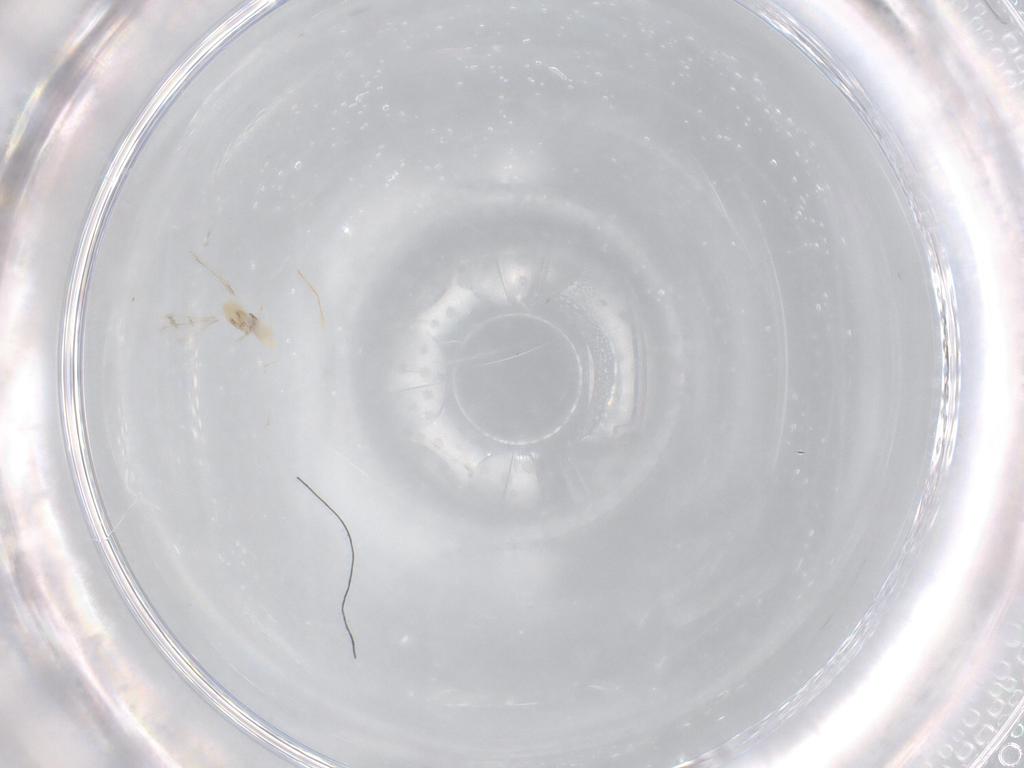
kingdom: Animalia
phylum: Arthropoda
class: Insecta
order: Diptera
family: Cecidomyiidae
